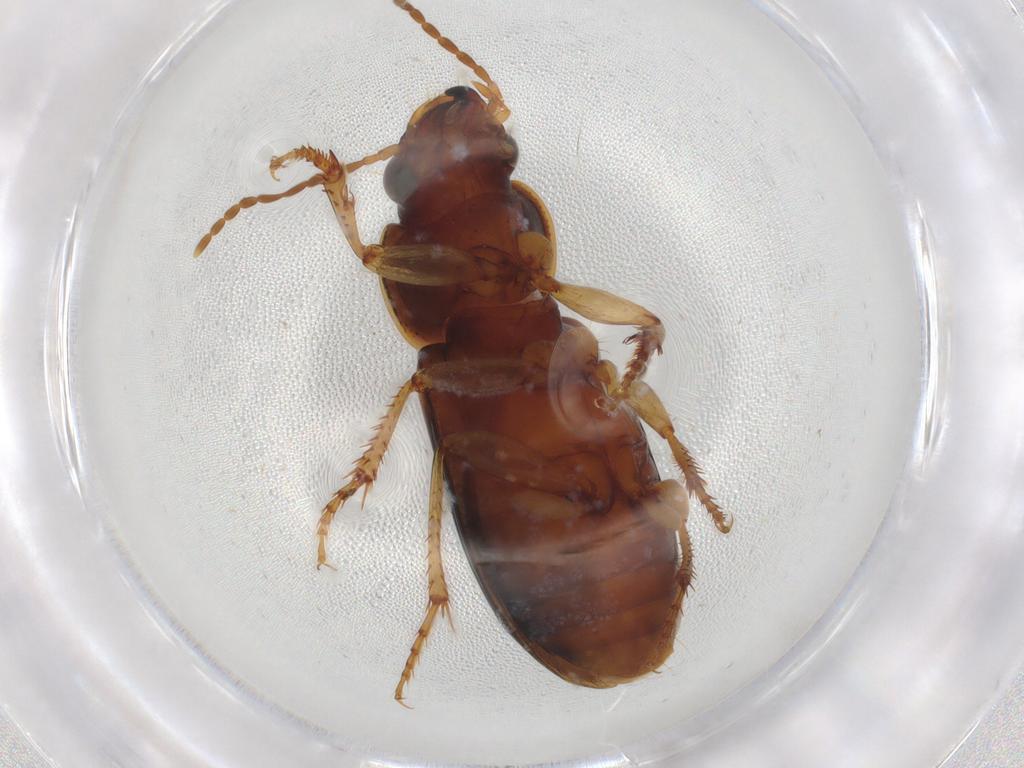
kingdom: Animalia
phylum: Arthropoda
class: Insecta
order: Coleoptera
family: Carabidae
